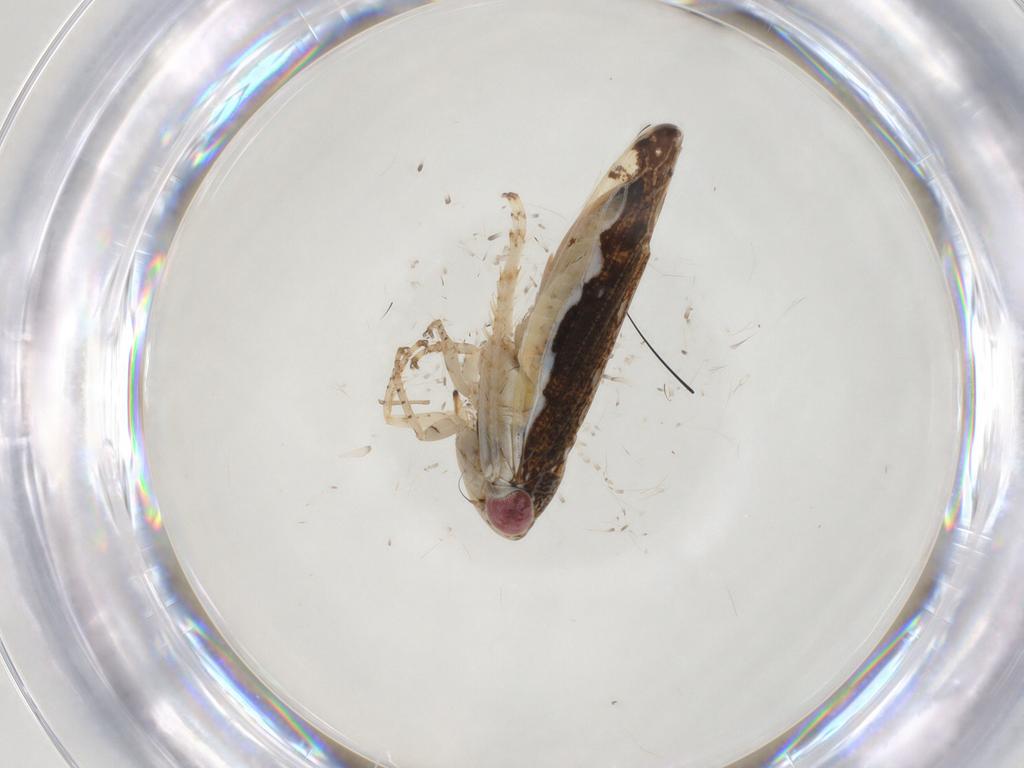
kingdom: Animalia
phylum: Arthropoda
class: Insecta
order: Hemiptera
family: Cicadellidae
